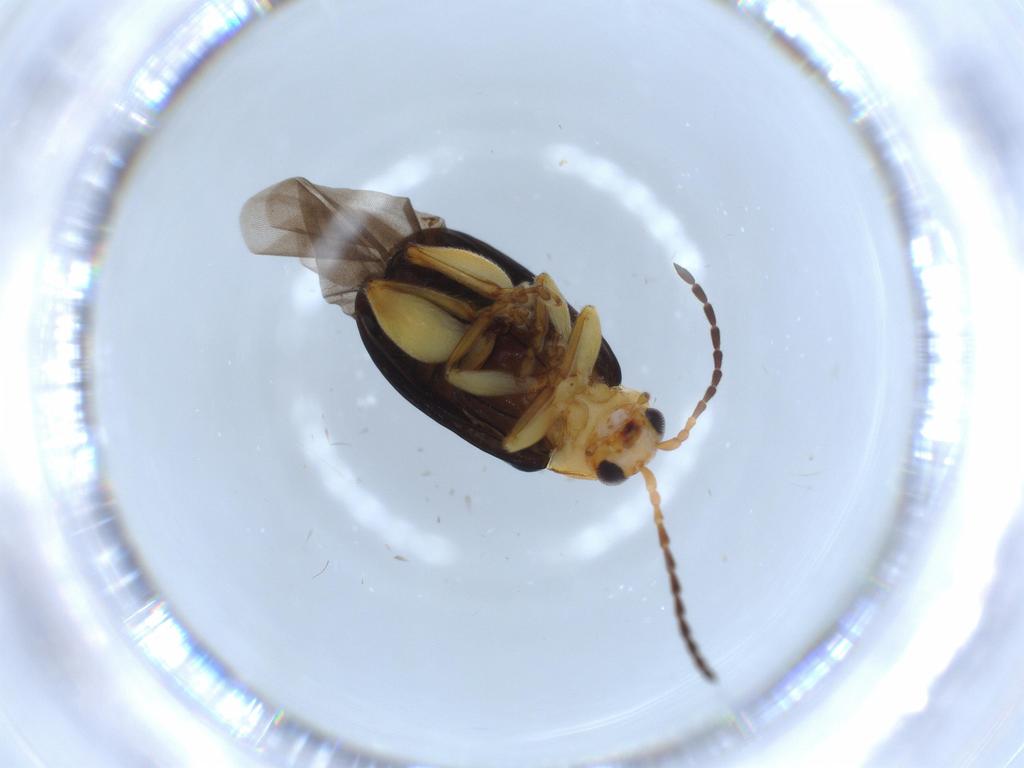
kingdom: Animalia
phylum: Arthropoda
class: Insecta
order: Coleoptera
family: Chrysomelidae
